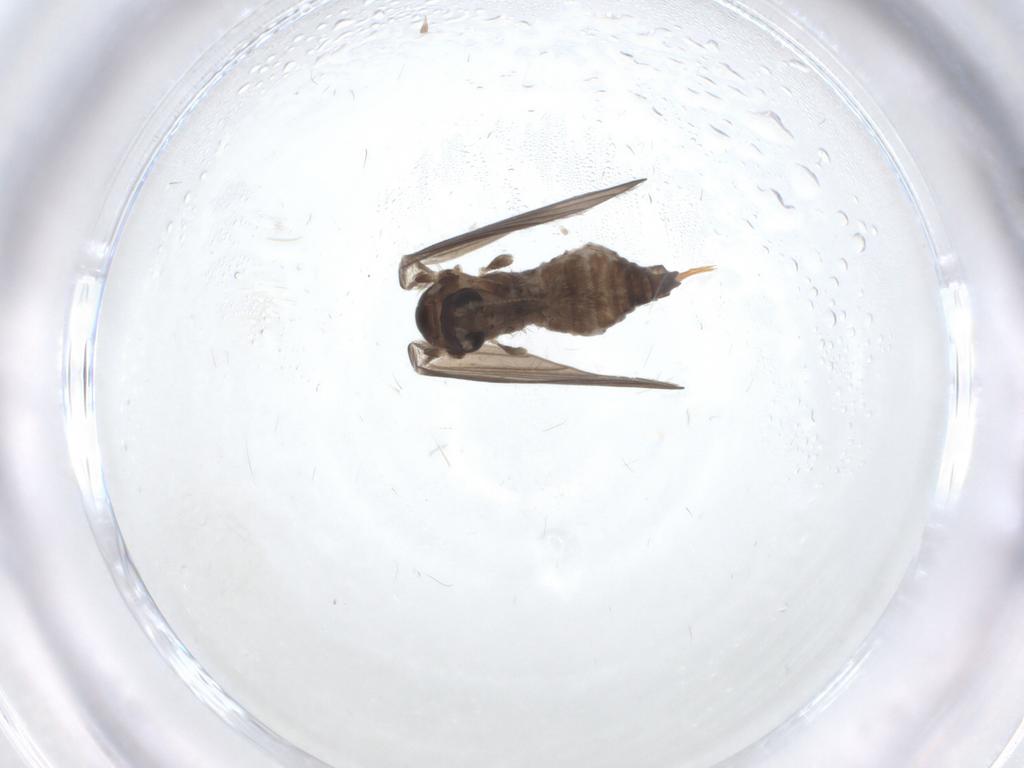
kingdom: Animalia
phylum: Arthropoda
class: Insecta
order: Diptera
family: Psychodidae
